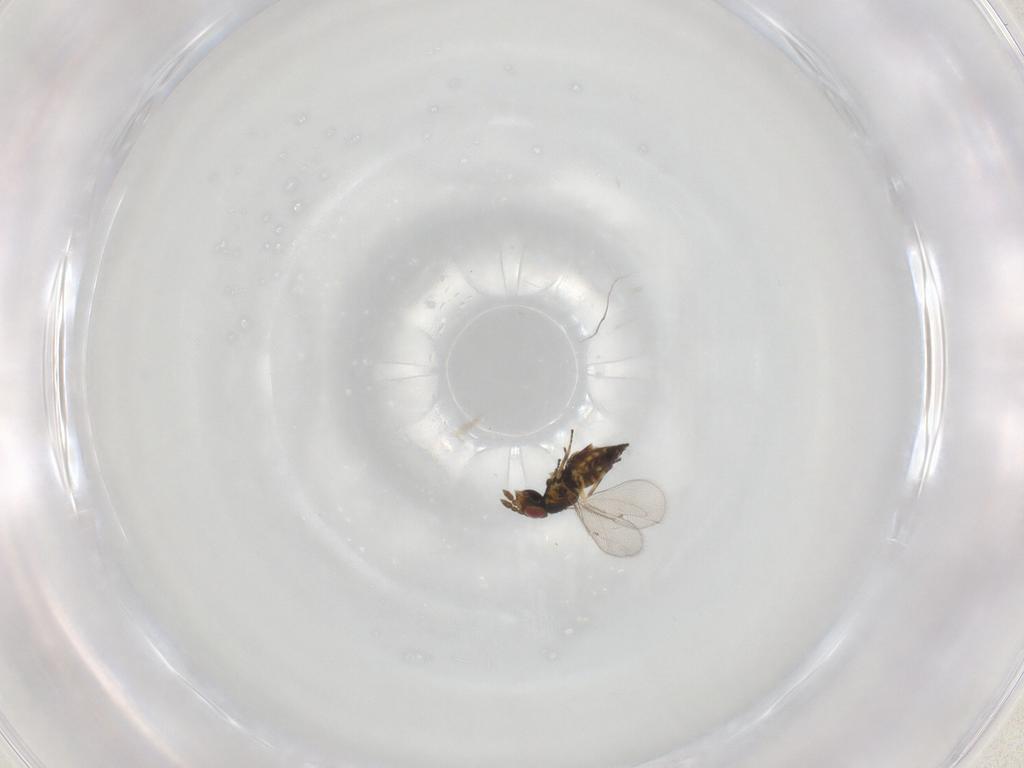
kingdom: Animalia
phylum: Arthropoda
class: Insecta
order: Hymenoptera
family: Eulophidae
